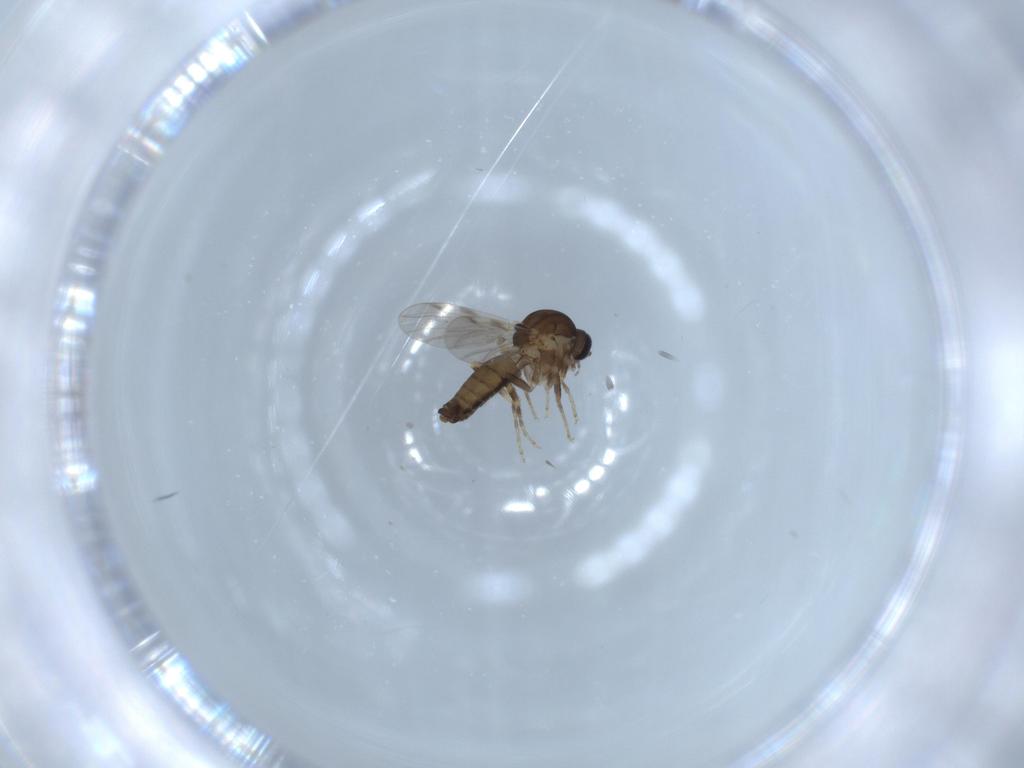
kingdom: Animalia
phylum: Arthropoda
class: Insecta
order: Diptera
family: Ceratopogonidae
